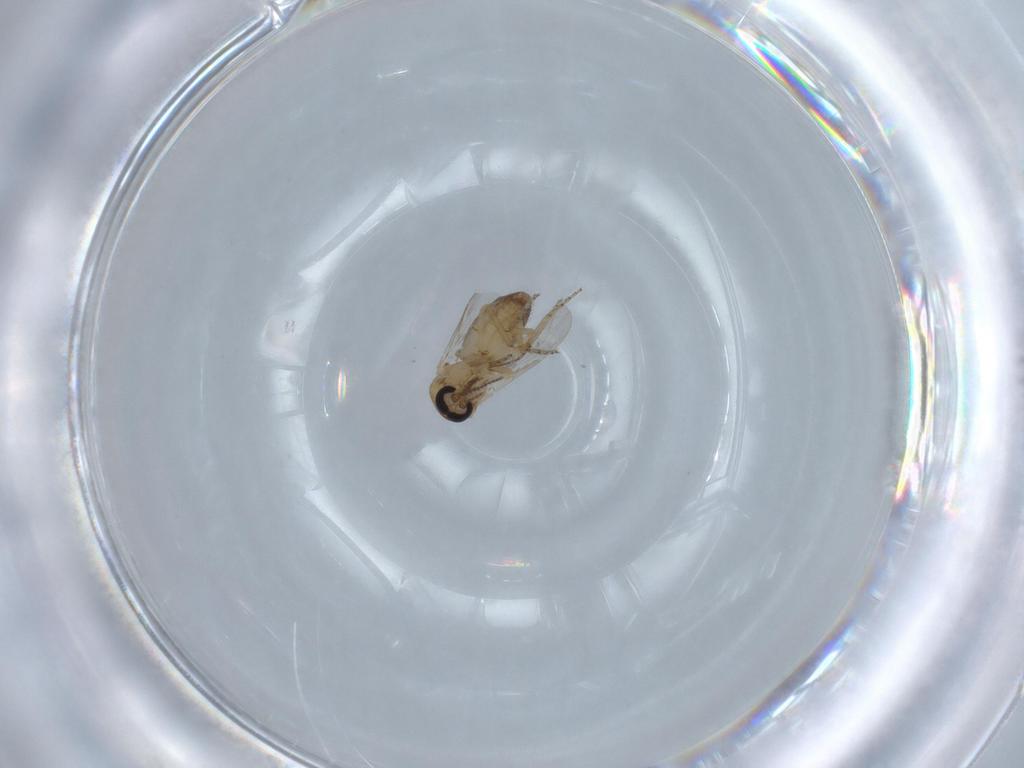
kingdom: Animalia
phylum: Arthropoda
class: Insecta
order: Diptera
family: Ceratopogonidae
